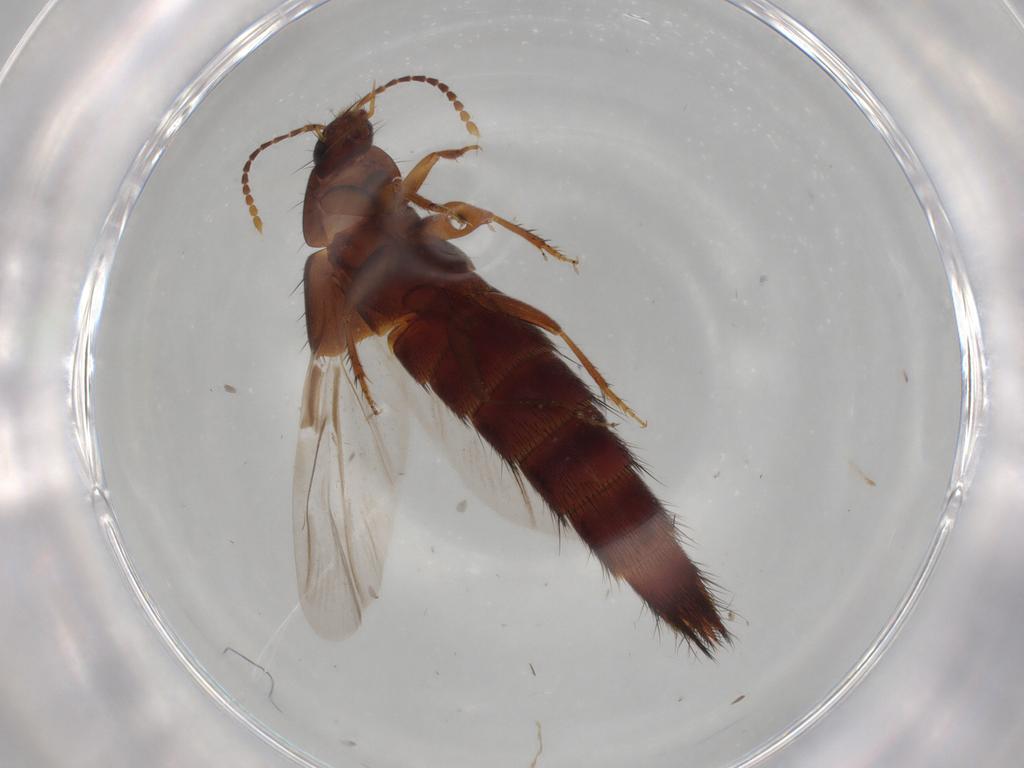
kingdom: Animalia
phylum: Arthropoda
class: Insecta
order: Coleoptera
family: Staphylinidae
